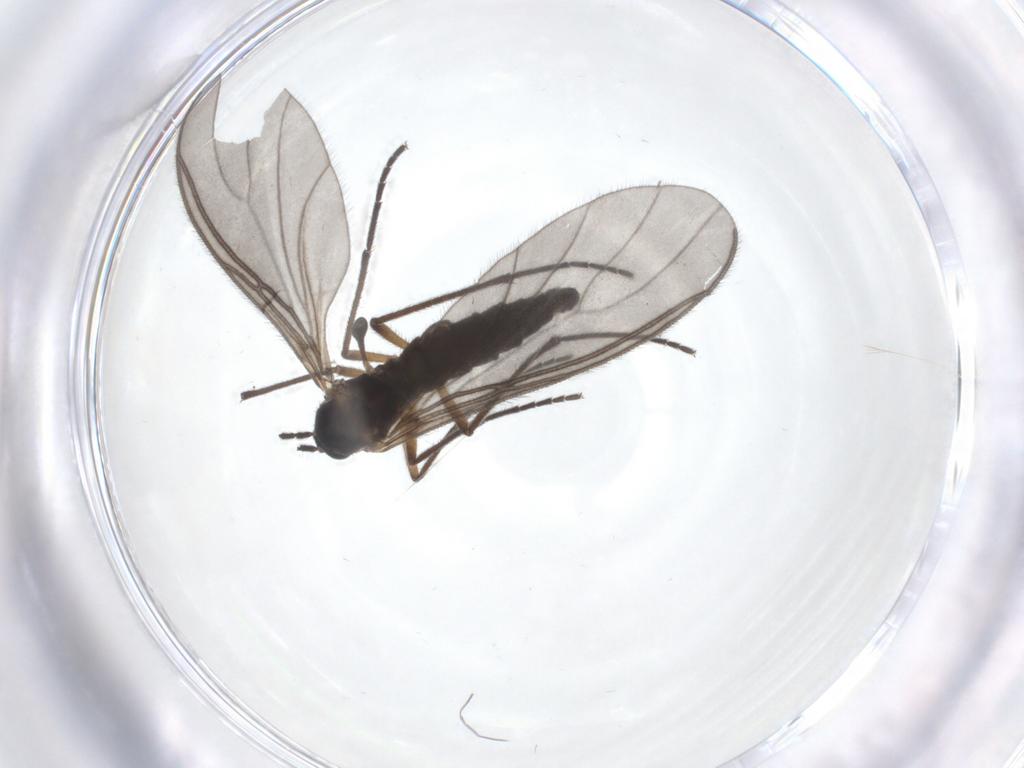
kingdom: Animalia
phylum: Arthropoda
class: Insecta
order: Diptera
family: Sciaridae
